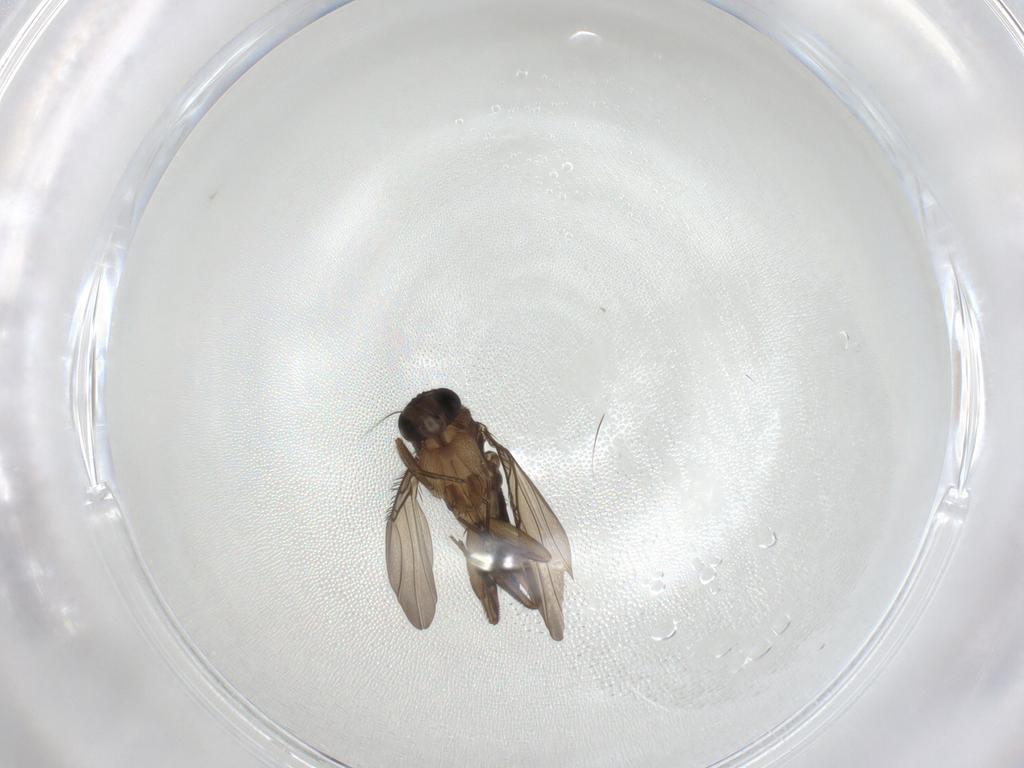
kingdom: Animalia
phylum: Arthropoda
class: Insecta
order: Diptera
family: Phoridae
